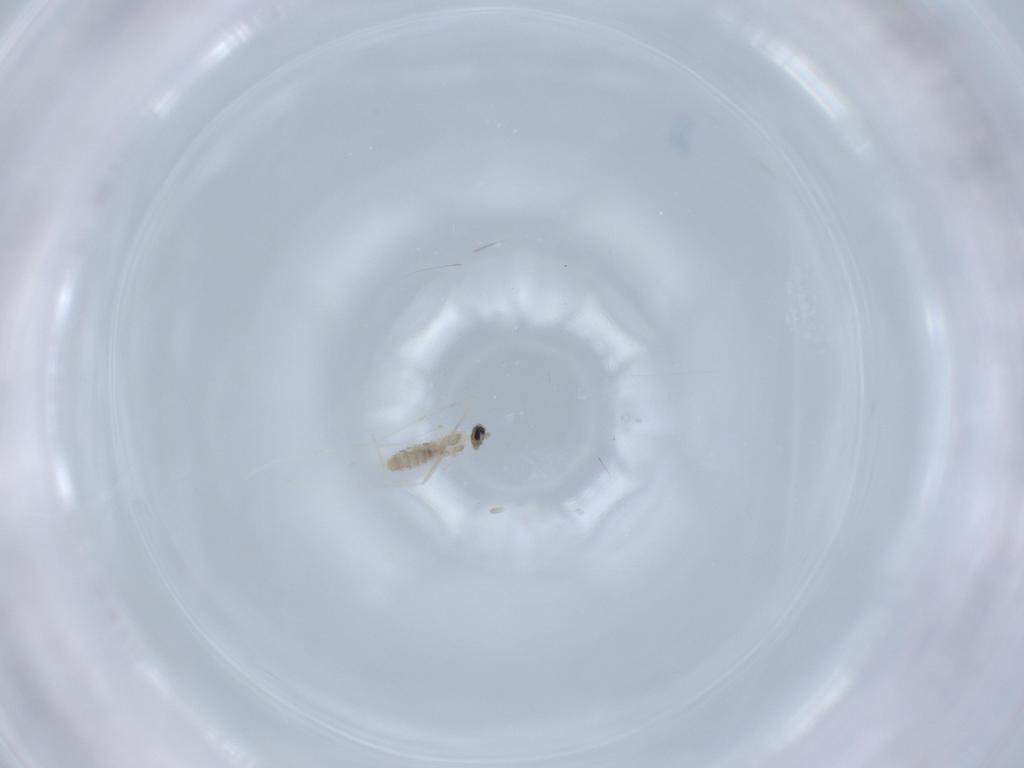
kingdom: Animalia
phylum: Arthropoda
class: Insecta
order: Diptera
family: Cecidomyiidae
